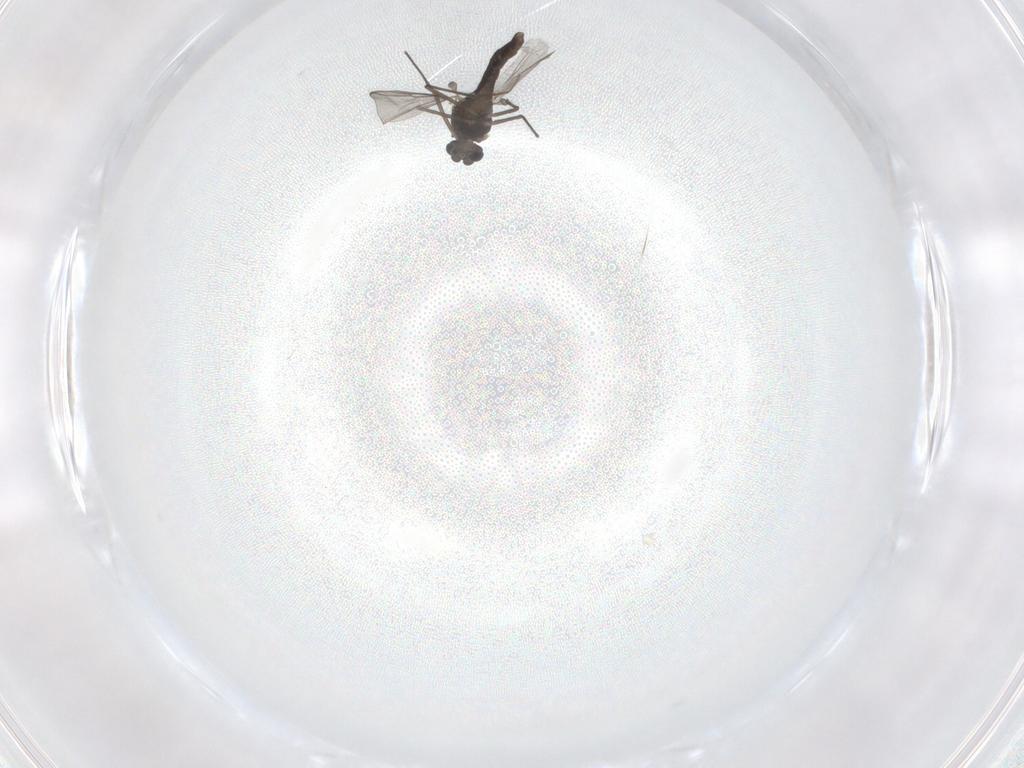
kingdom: Animalia
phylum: Arthropoda
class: Insecta
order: Diptera
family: Chironomidae
